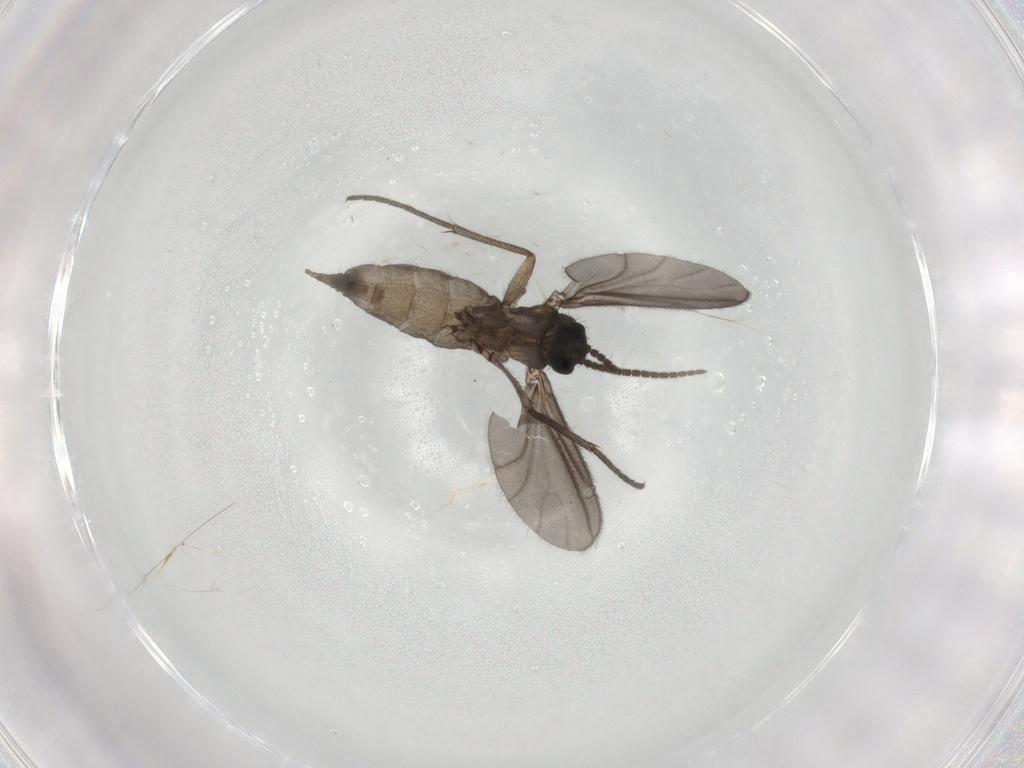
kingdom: Animalia
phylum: Arthropoda
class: Insecta
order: Diptera
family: Sciaridae
